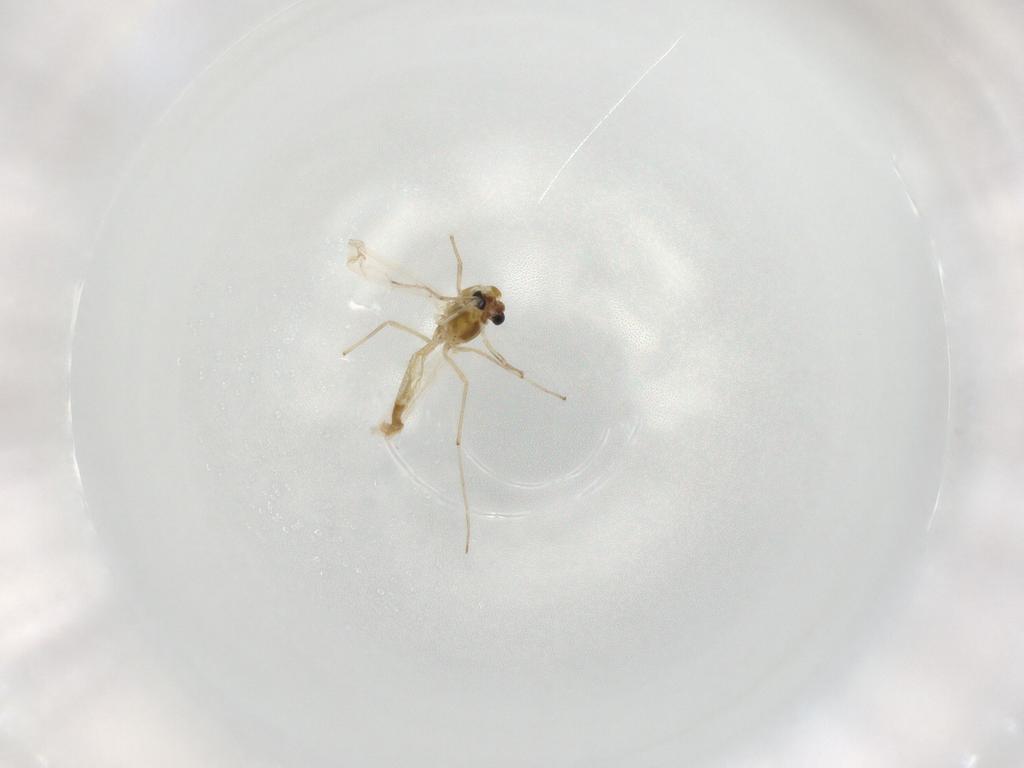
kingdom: Animalia
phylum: Arthropoda
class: Insecta
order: Diptera
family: Chironomidae
